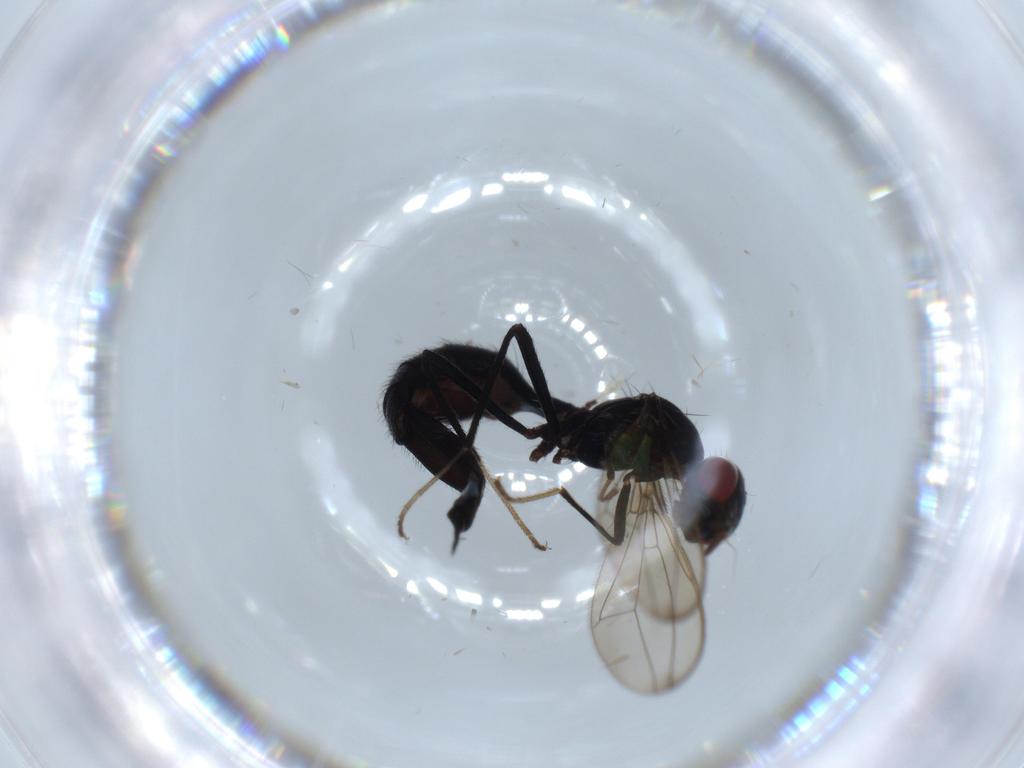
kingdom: Animalia
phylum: Arthropoda
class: Insecta
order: Diptera
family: Richardiidae
